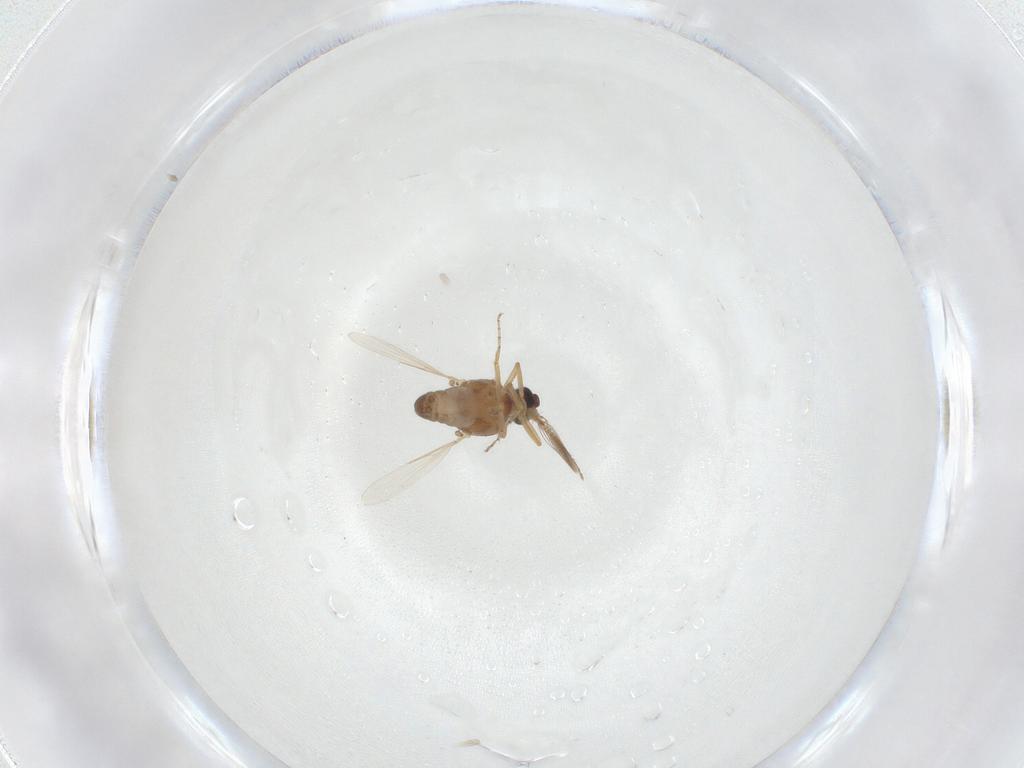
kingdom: Animalia
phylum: Arthropoda
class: Insecta
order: Diptera
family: Ceratopogonidae
